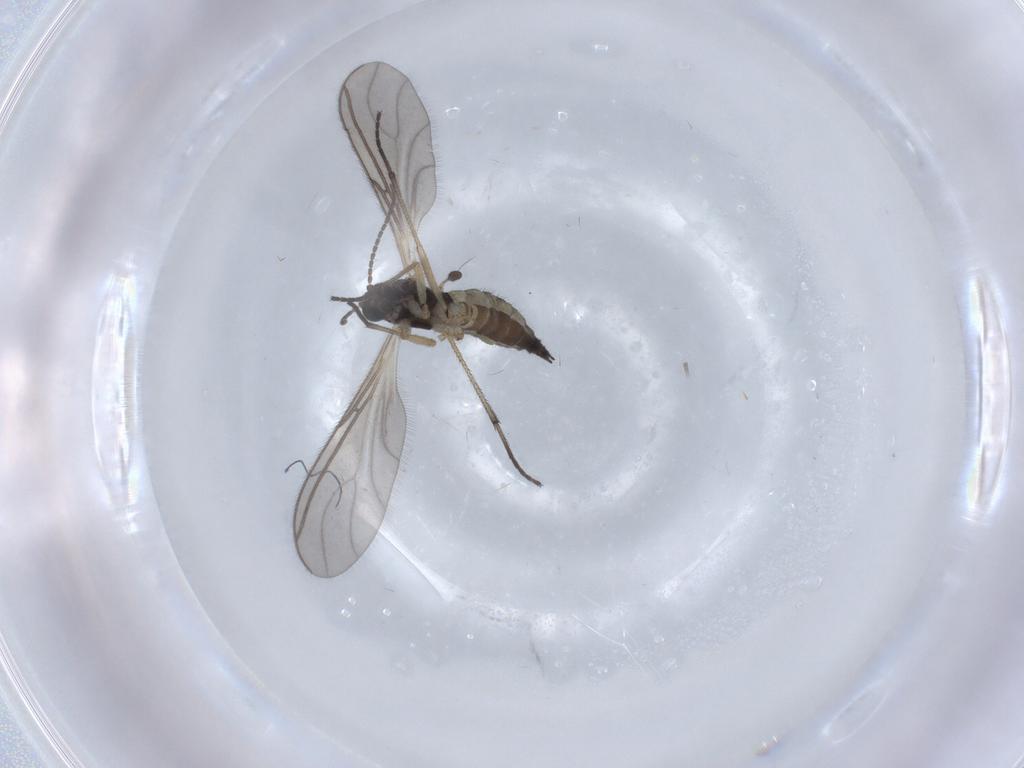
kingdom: Animalia
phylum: Arthropoda
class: Insecta
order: Diptera
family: Sciaridae
